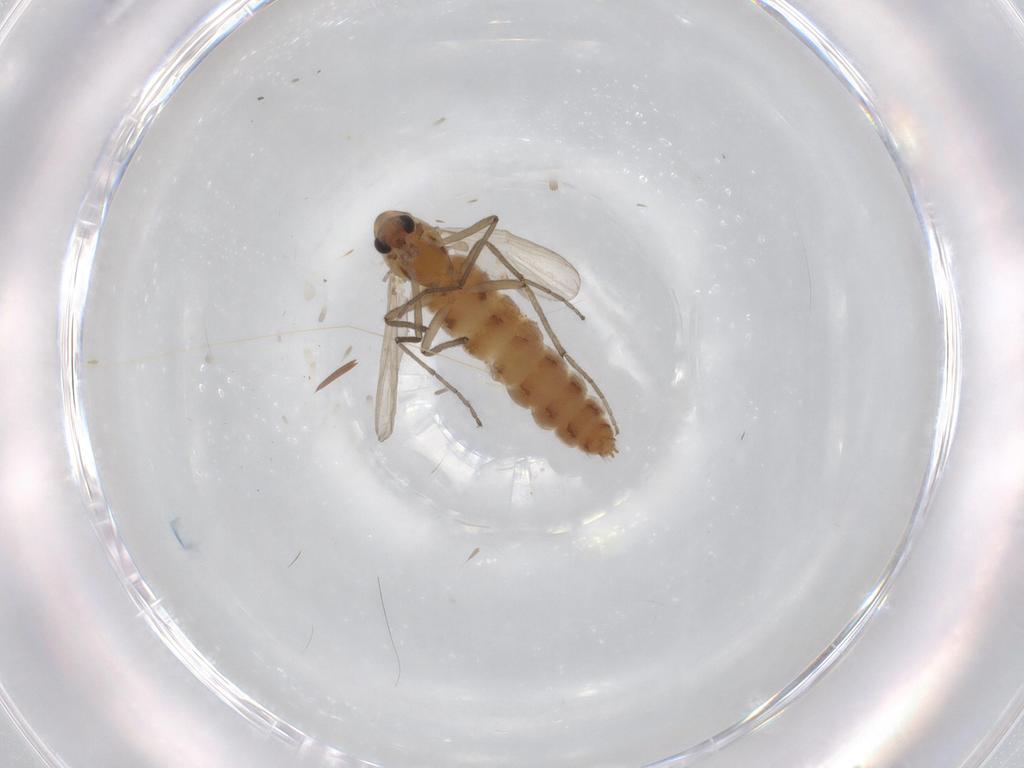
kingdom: Animalia
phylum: Arthropoda
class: Insecta
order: Diptera
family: Chironomidae
